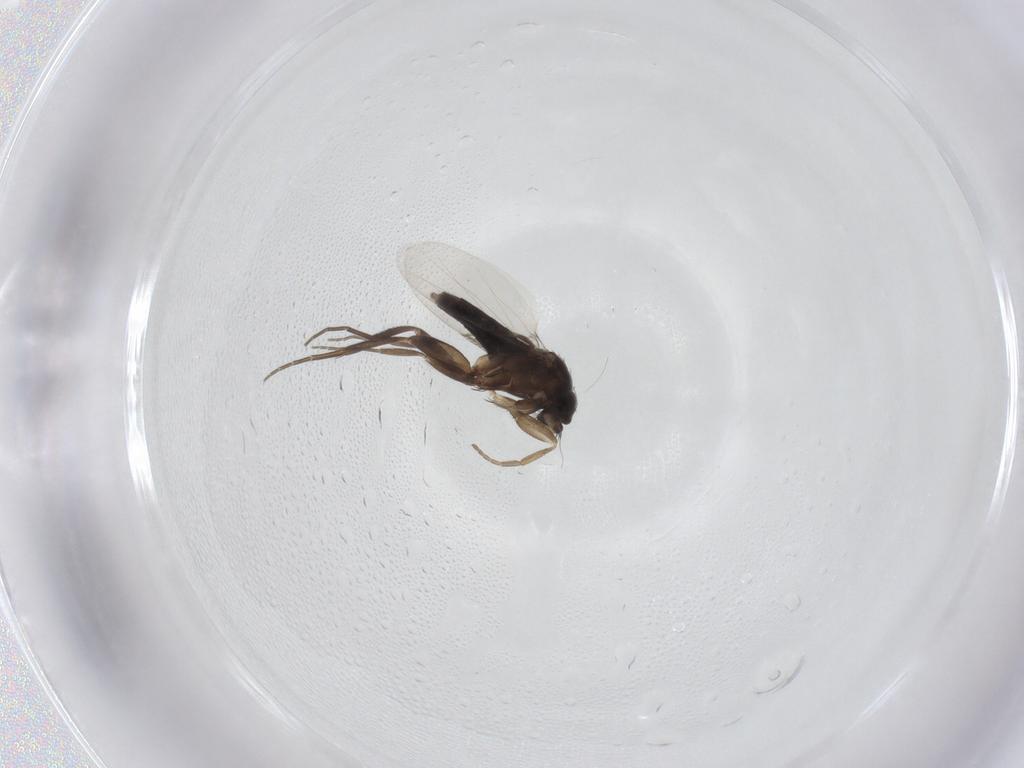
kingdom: Animalia
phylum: Arthropoda
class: Insecta
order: Diptera
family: Phoridae
